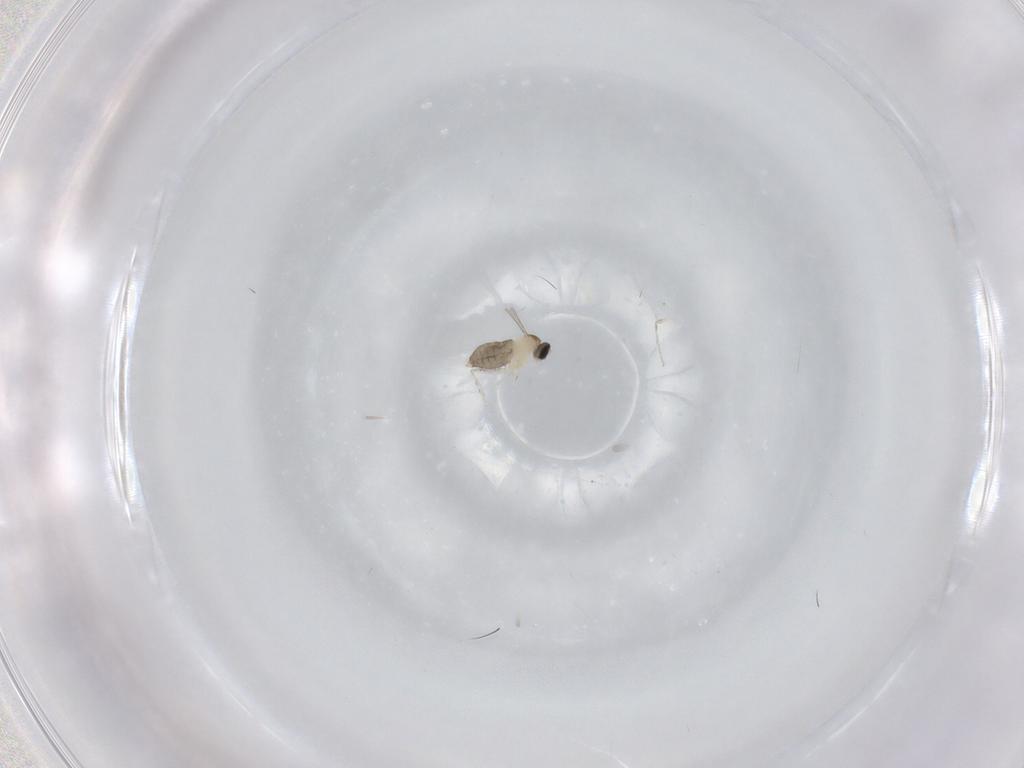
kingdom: Animalia
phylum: Arthropoda
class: Insecta
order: Diptera
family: Cecidomyiidae
